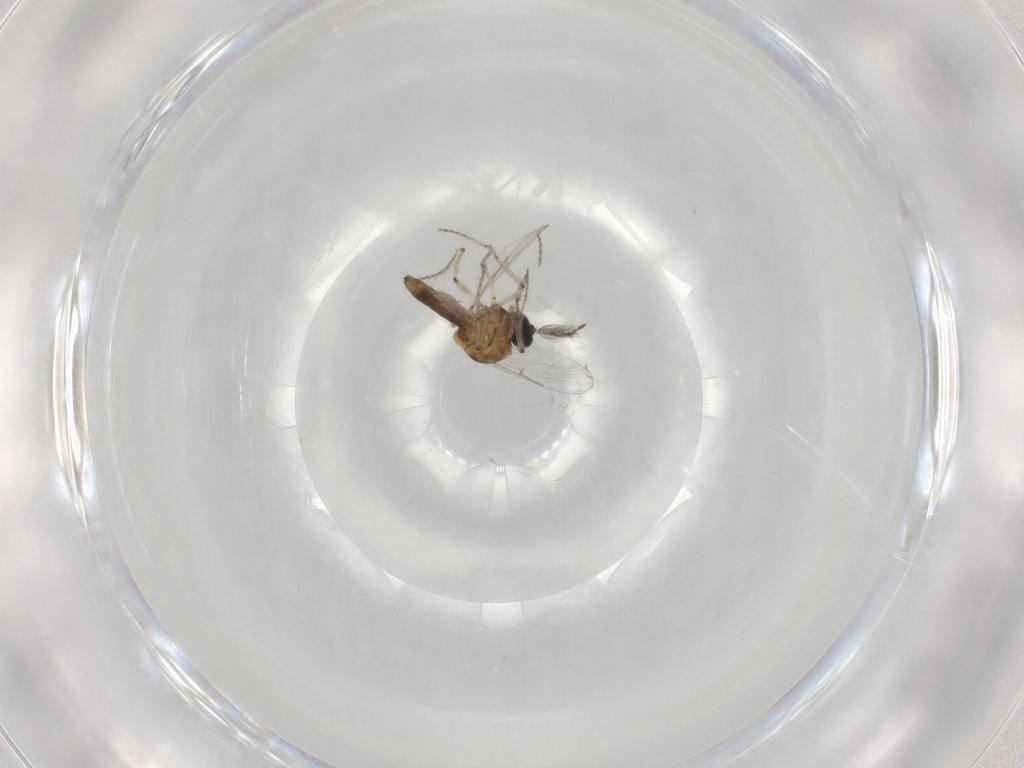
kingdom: Animalia
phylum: Arthropoda
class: Insecta
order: Diptera
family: Ceratopogonidae
